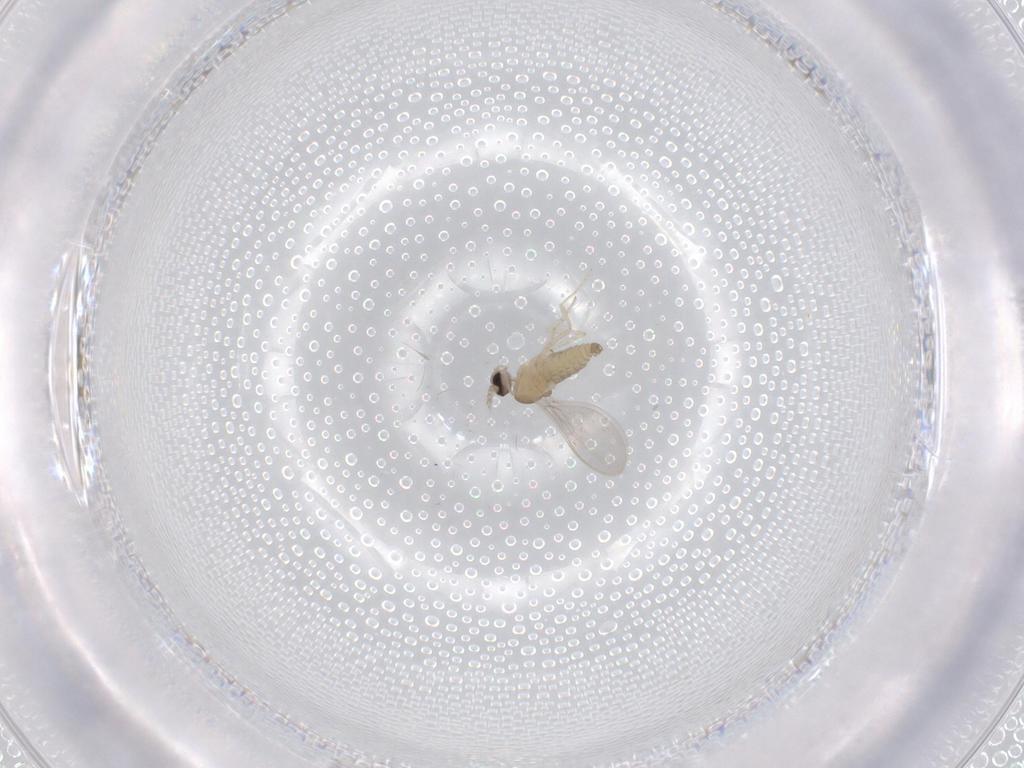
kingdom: Animalia
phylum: Arthropoda
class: Insecta
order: Diptera
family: Cecidomyiidae
